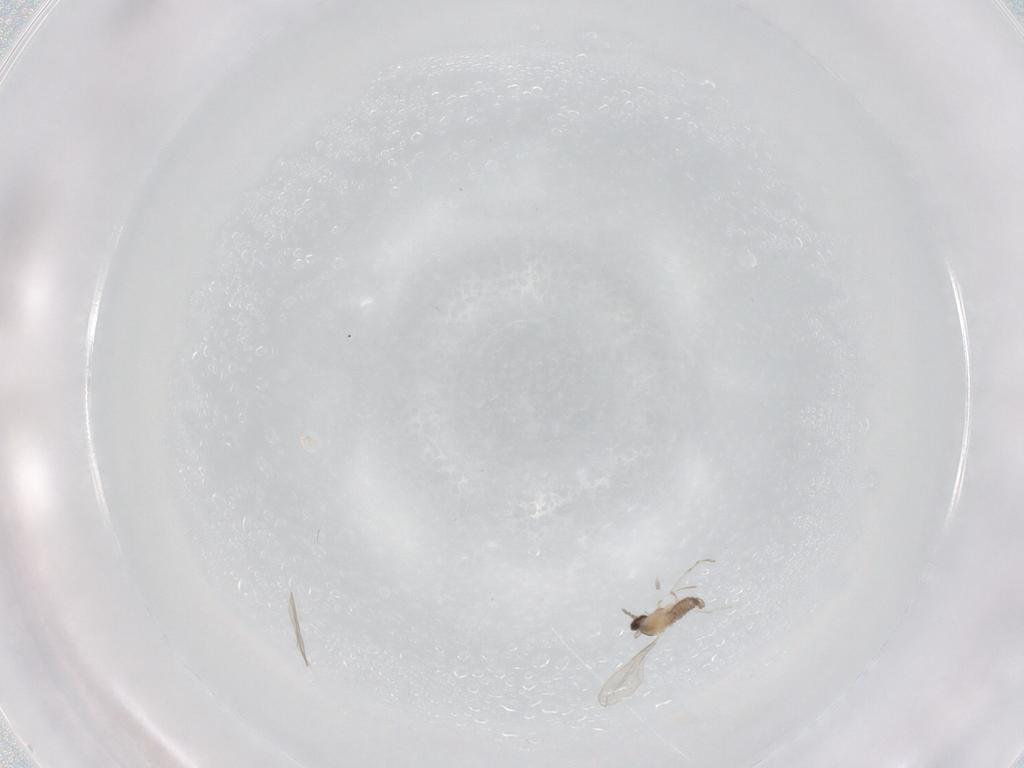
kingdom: Animalia
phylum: Arthropoda
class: Insecta
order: Diptera
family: Cecidomyiidae
